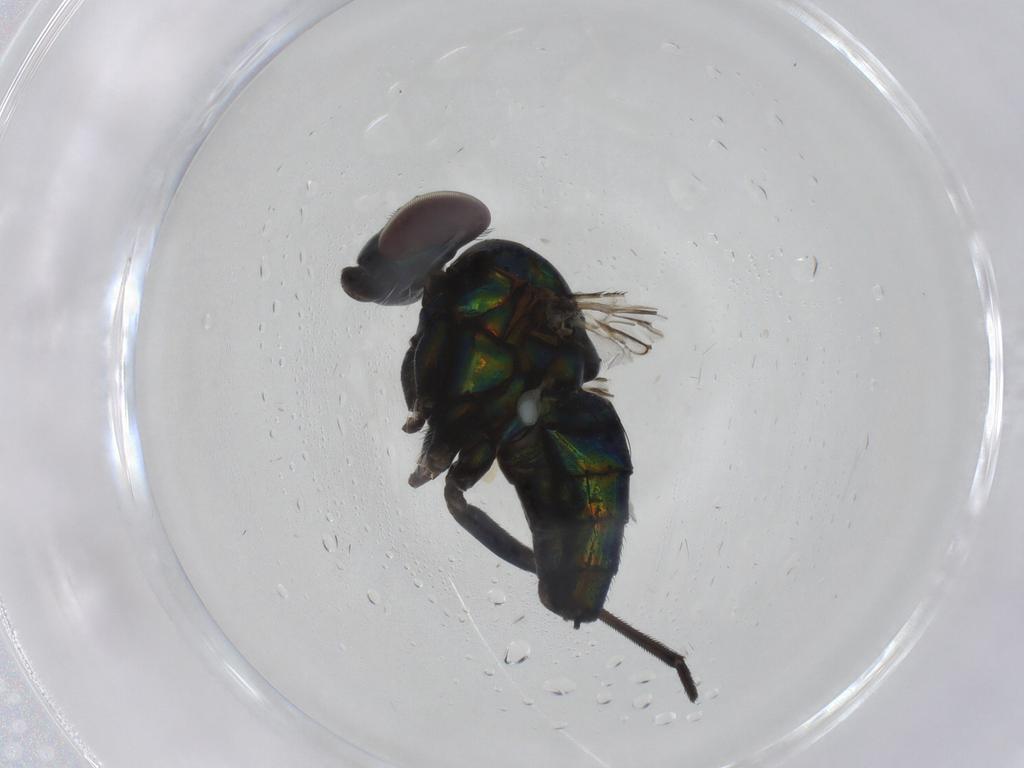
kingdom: Animalia
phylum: Arthropoda
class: Insecta
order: Diptera
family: Dolichopodidae
